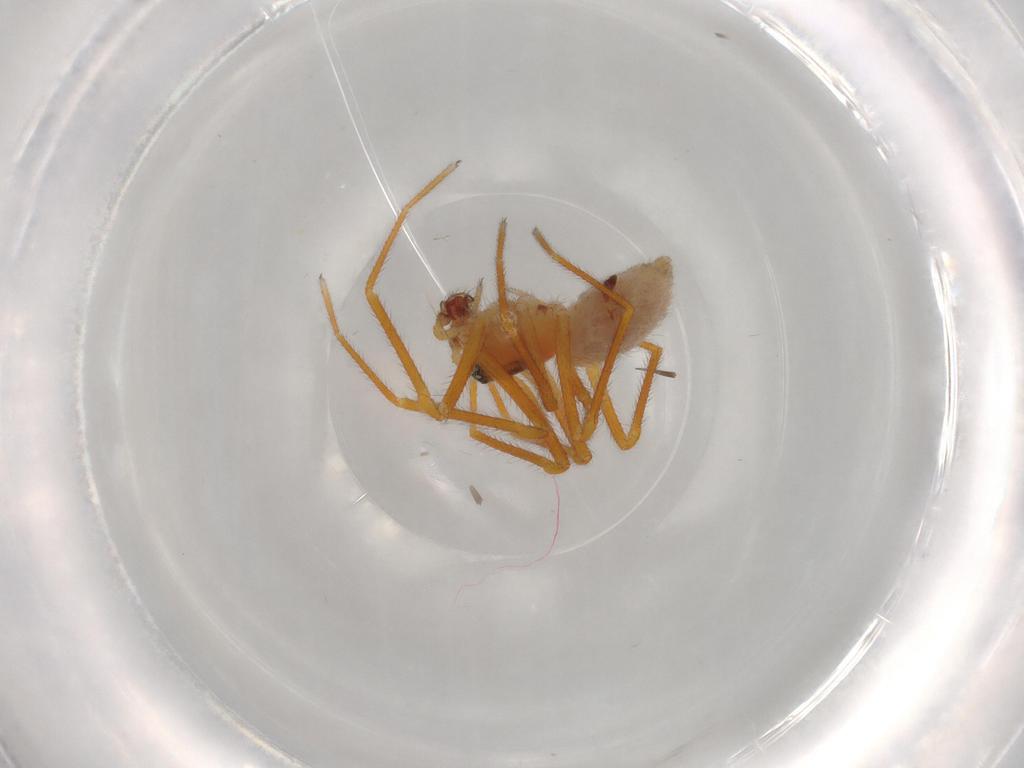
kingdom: Animalia
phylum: Arthropoda
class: Arachnida
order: Araneae
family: Linyphiidae
